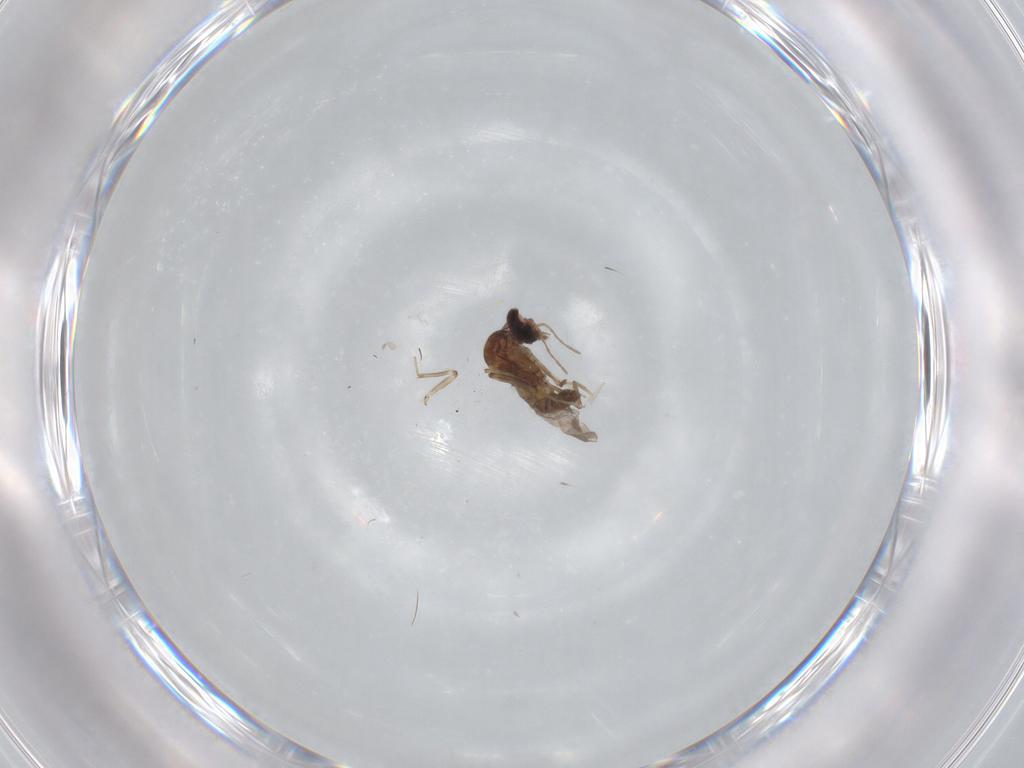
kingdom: Animalia
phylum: Arthropoda
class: Insecta
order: Diptera
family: Ceratopogonidae
